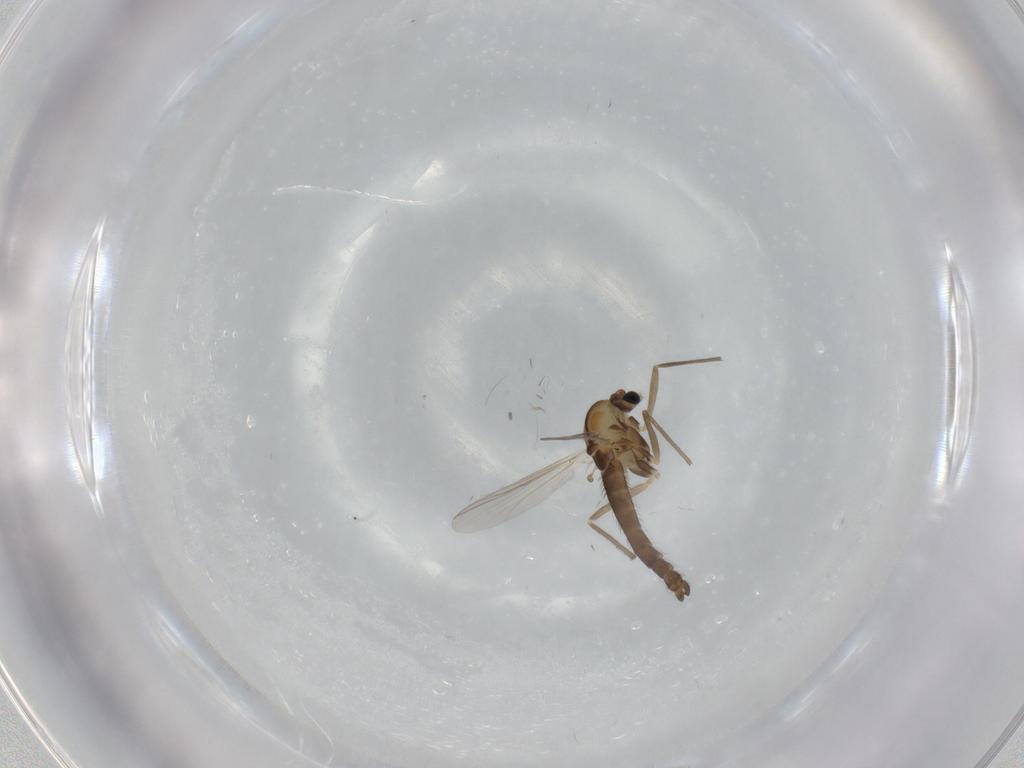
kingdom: Animalia
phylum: Arthropoda
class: Insecta
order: Diptera
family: Chironomidae
